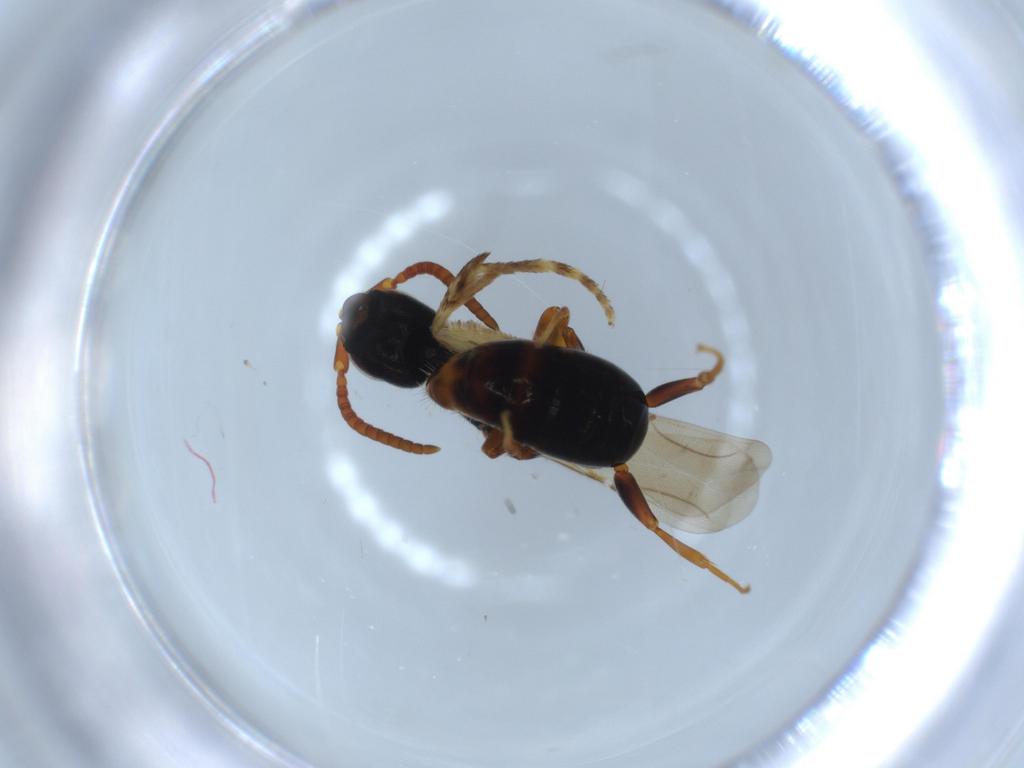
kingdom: Animalia
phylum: Arthropoda
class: Insecta
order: Hymenoptera
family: Bethylidae
